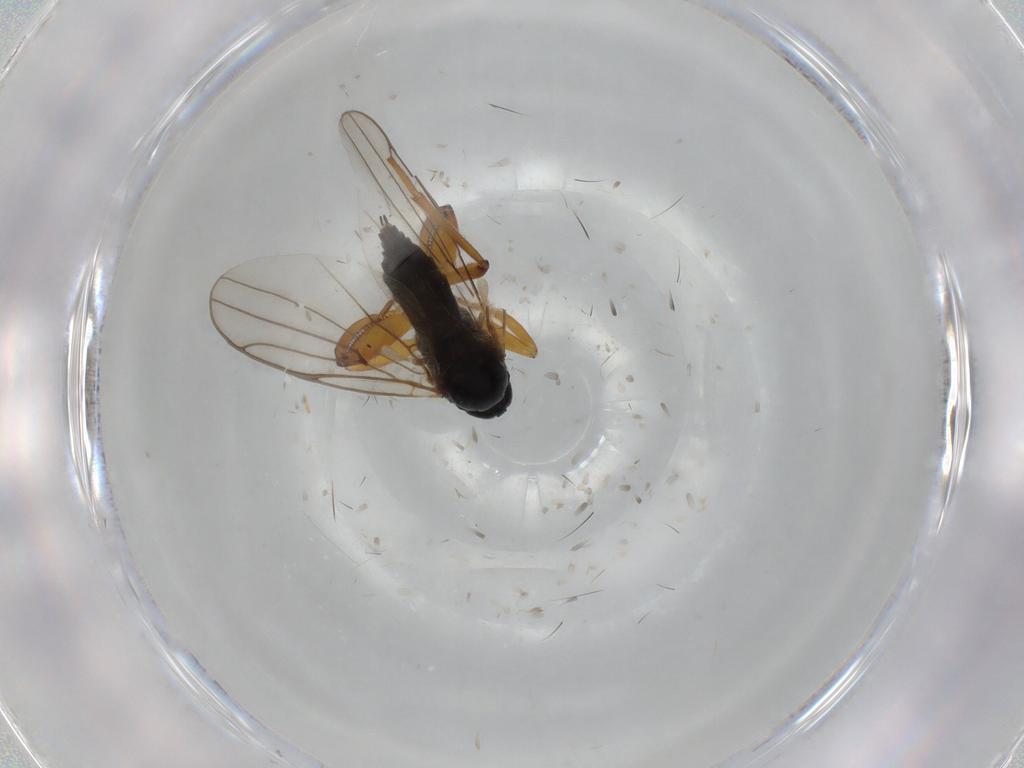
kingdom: Animalia
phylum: Arthropoda
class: Insecta
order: Diptera
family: Hybotidae
